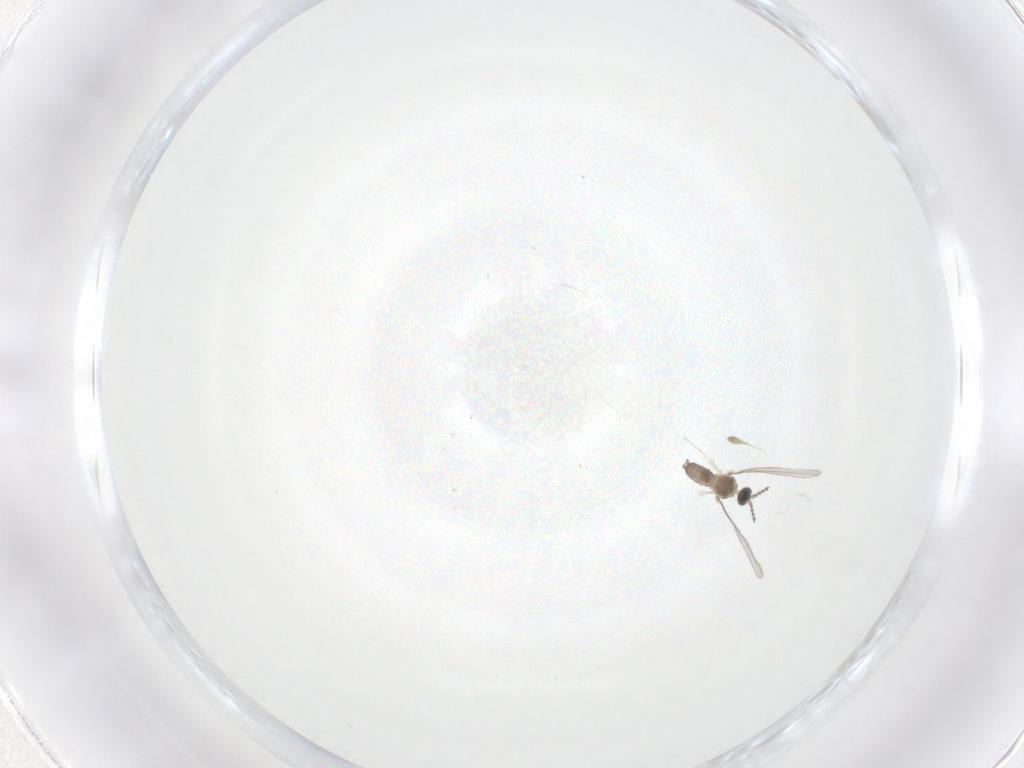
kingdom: Animalia
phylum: Arthropoda
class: Insecta
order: Diptera
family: Cecidomyiidae
